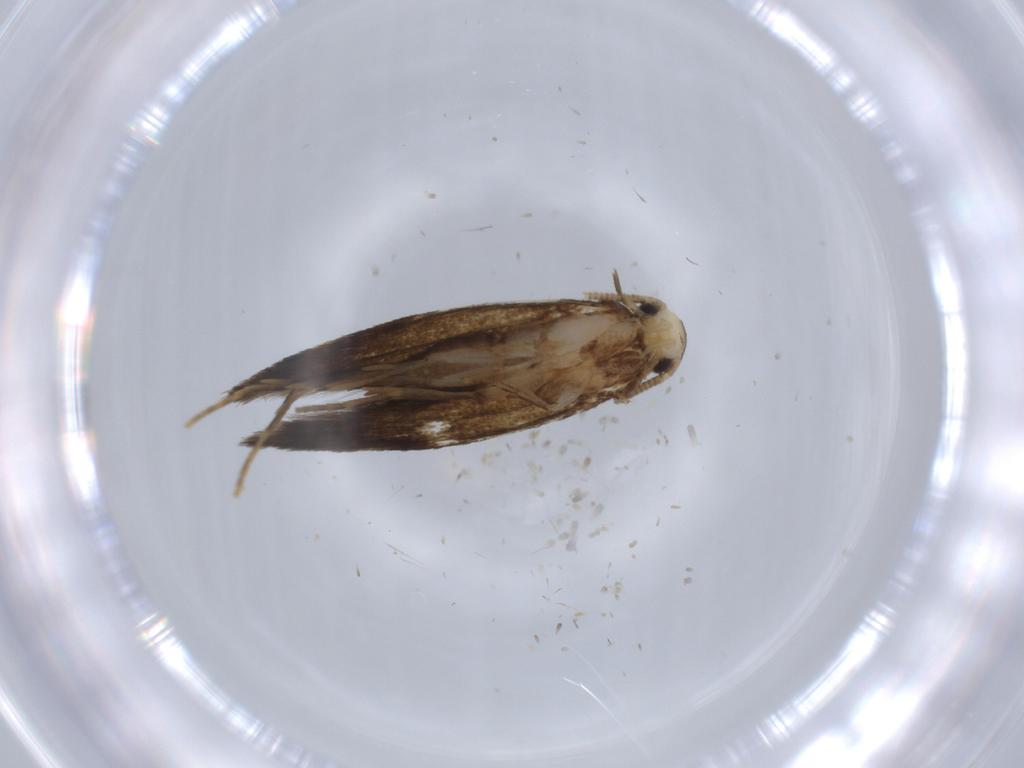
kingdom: Animalia
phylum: Arthropoda
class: Insecta
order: Lepidoptera
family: Tineidae
